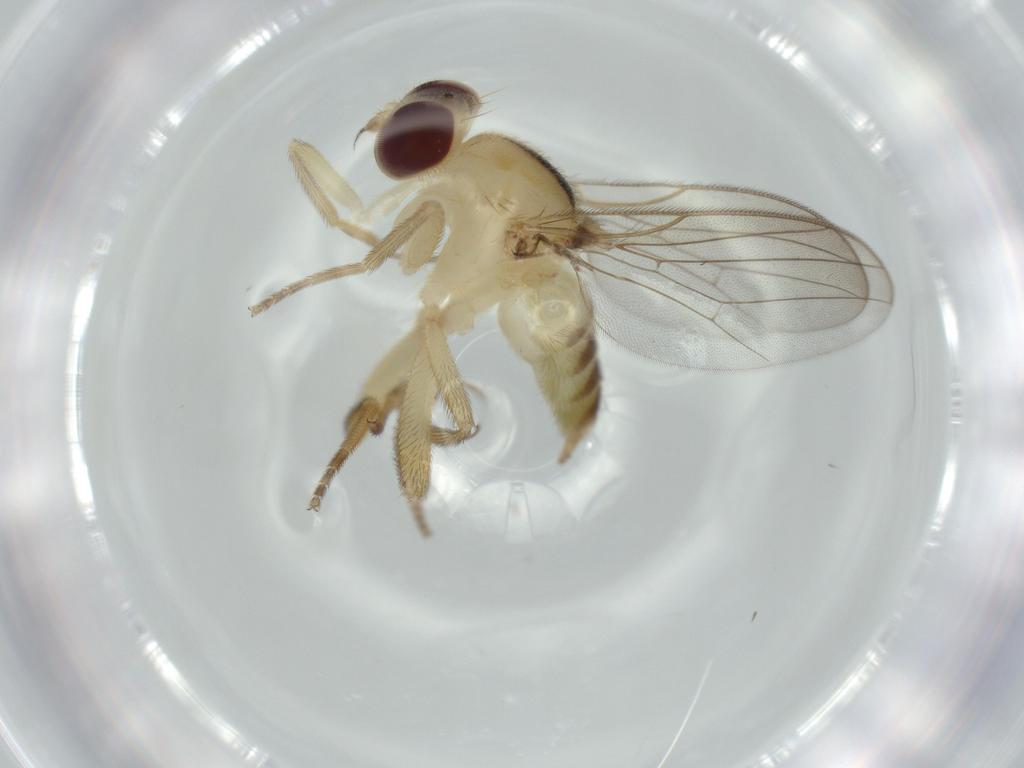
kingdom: Animalia
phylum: Arthropoda
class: Insecta
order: Diptera
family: Chloropidae
